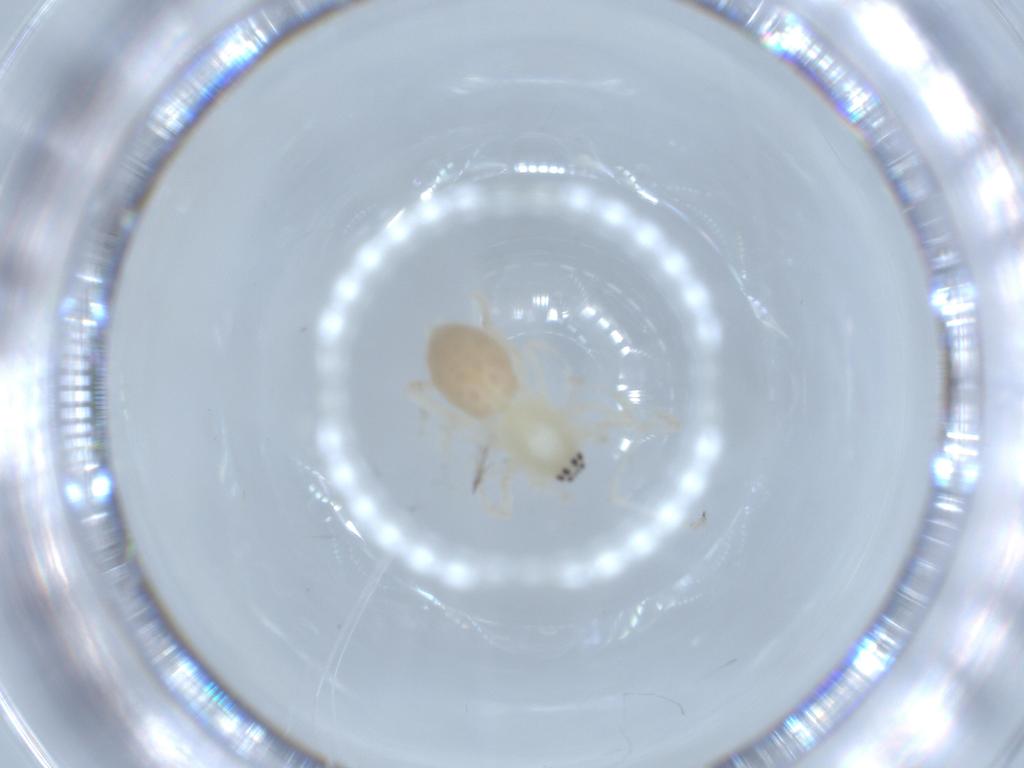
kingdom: Animalia
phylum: Arthropoda
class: Arachnida
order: Araneae
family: Anyphaenidae
